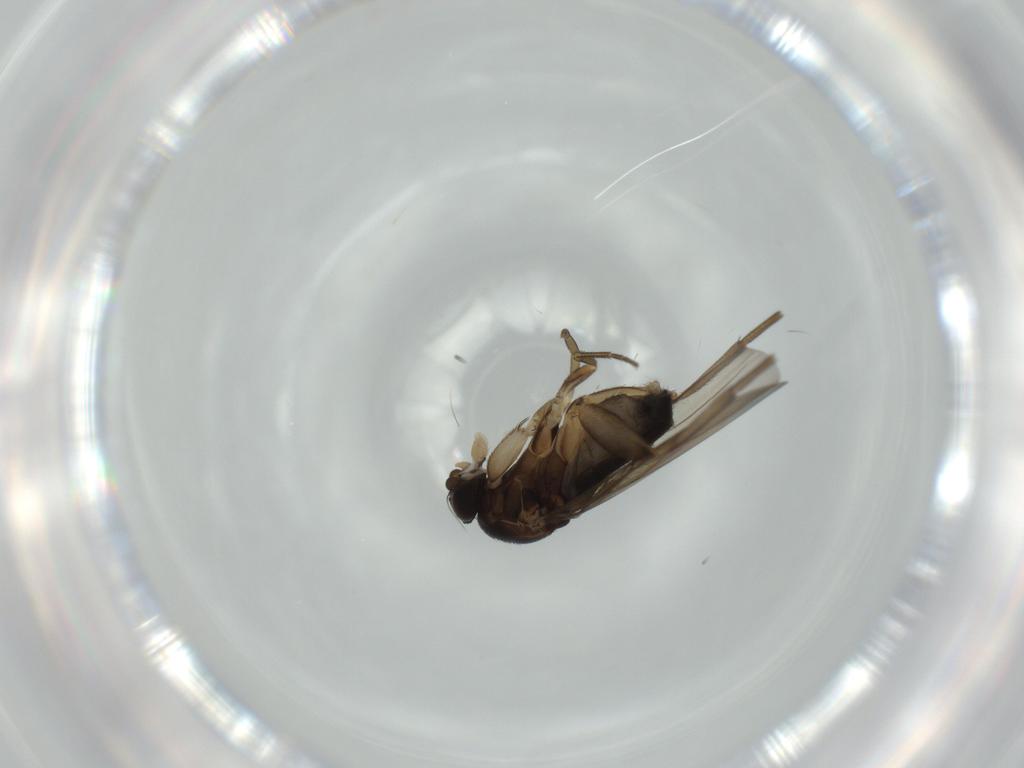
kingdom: Animalia
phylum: Arthropoda
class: Insecta
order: Diptera
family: Phoridae
